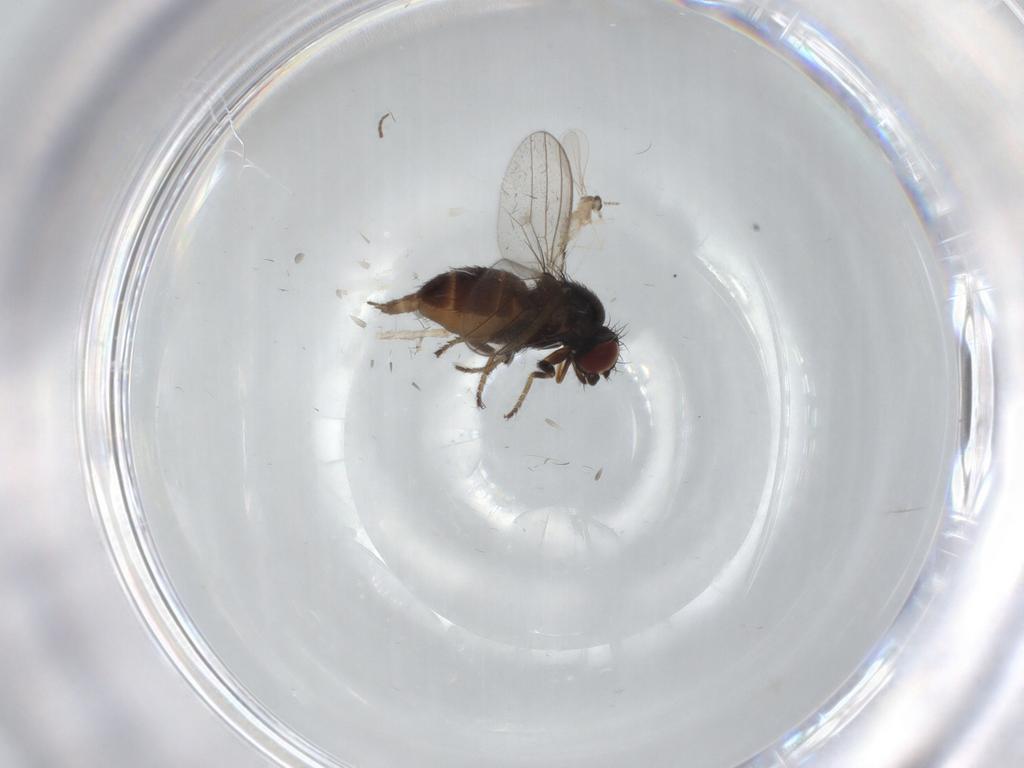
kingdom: Animalia
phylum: Arthropoda
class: Insecta
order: Diptera
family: Milichiidae
